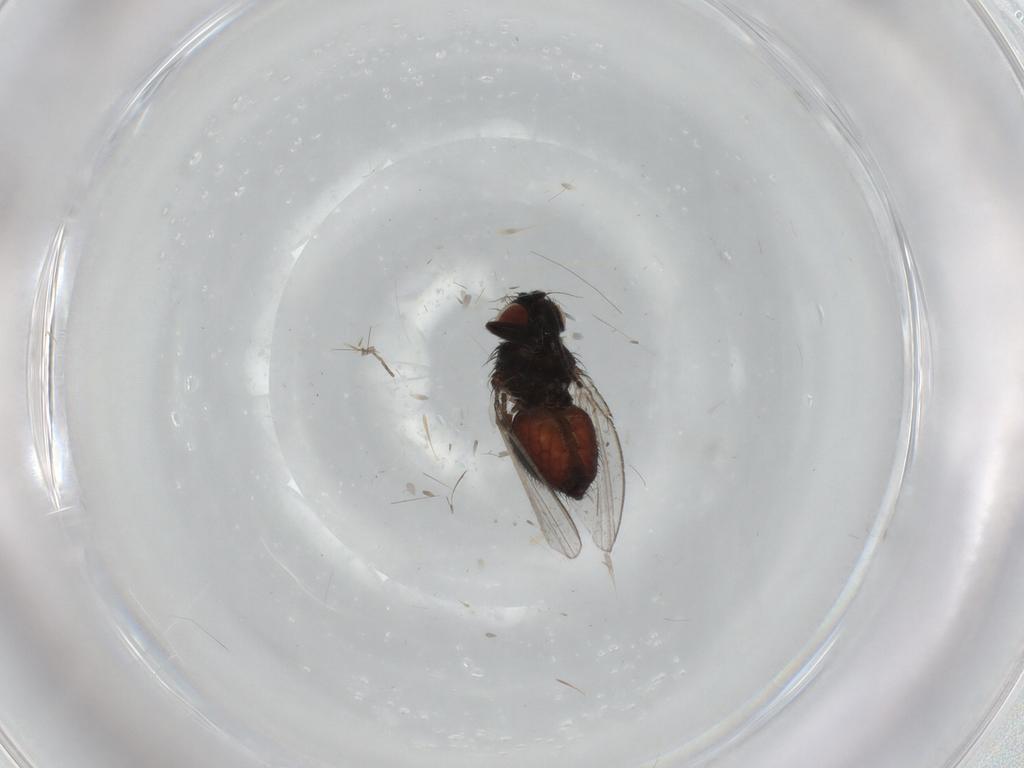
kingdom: Animalia
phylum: Arthropoda
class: Insecta
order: Diptera
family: Milichiidae
